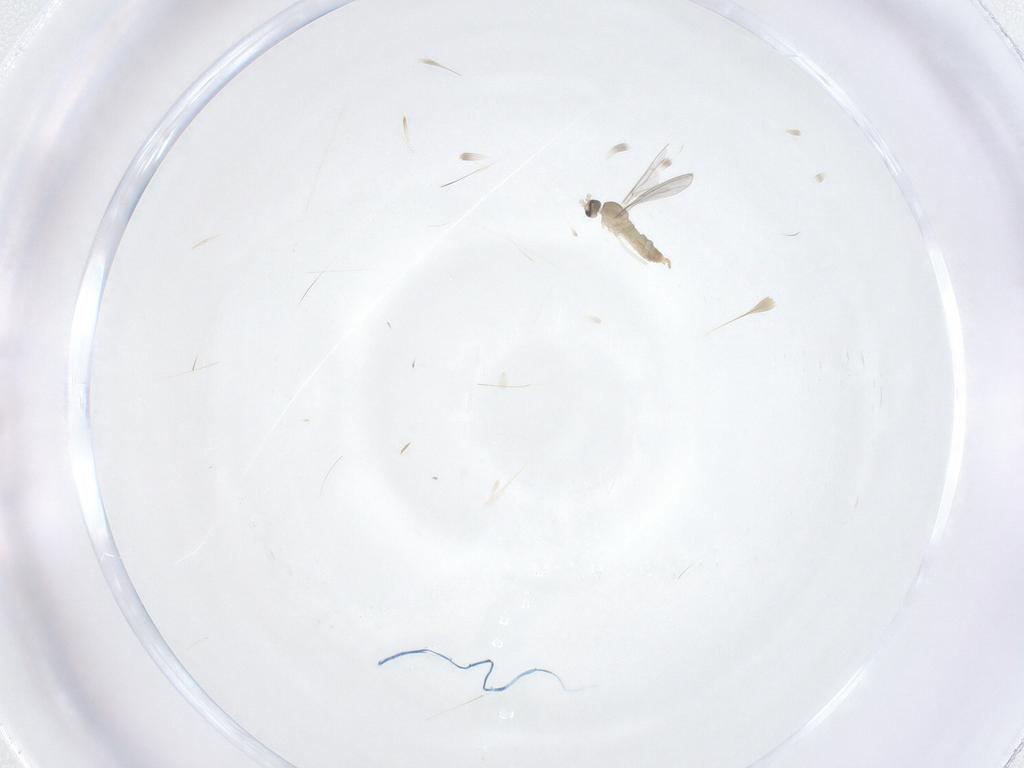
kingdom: Animalia
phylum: Arthropoda
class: Insecta
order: Diptera
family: Cecidomyiidae
